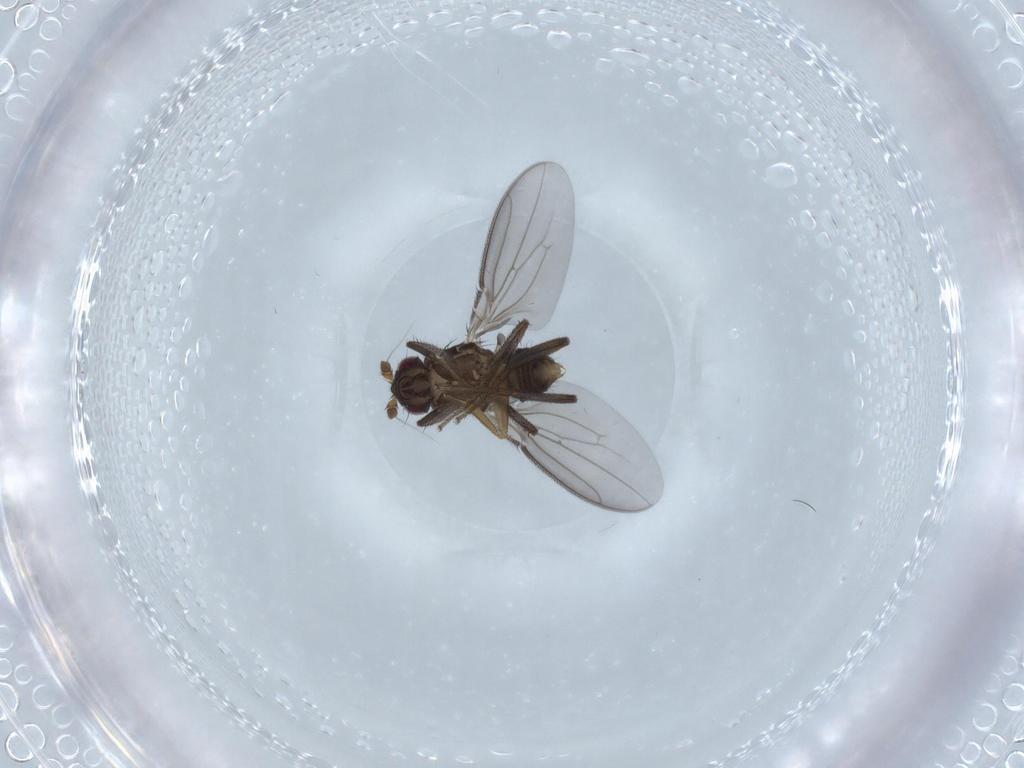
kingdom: Animalia
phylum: Arthropoda
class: Insecta
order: Diptera
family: Sphaeroceridae
